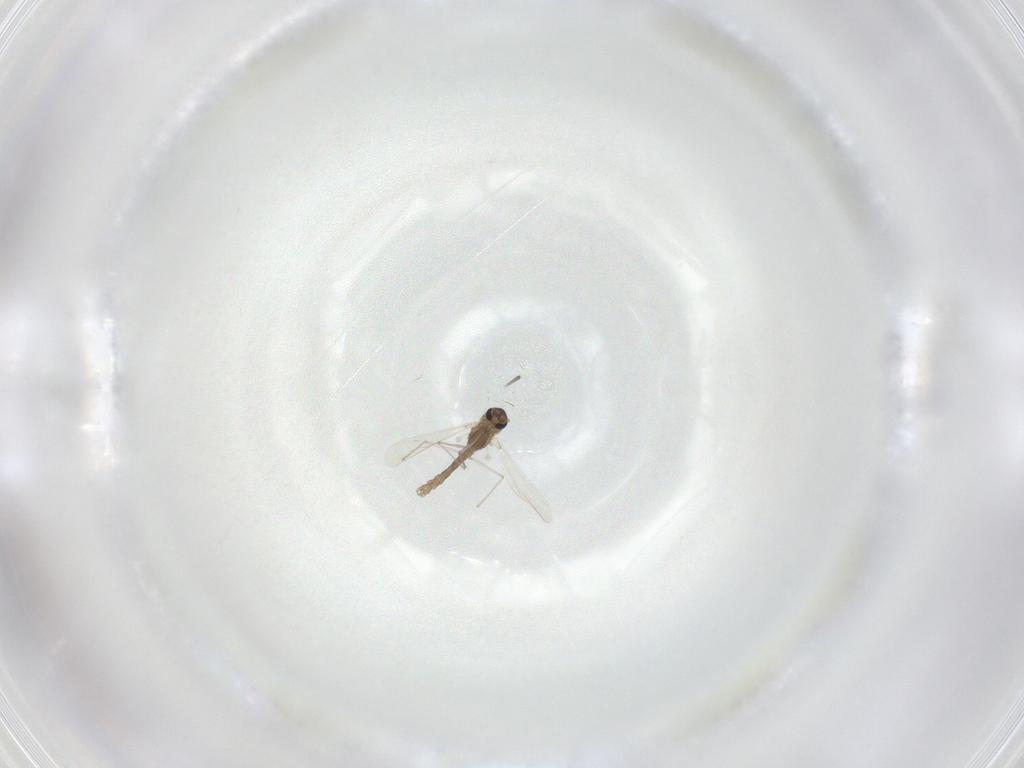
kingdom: Animalia
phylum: Arthropoda
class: Insecta
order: Diptera
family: Chironomidae
